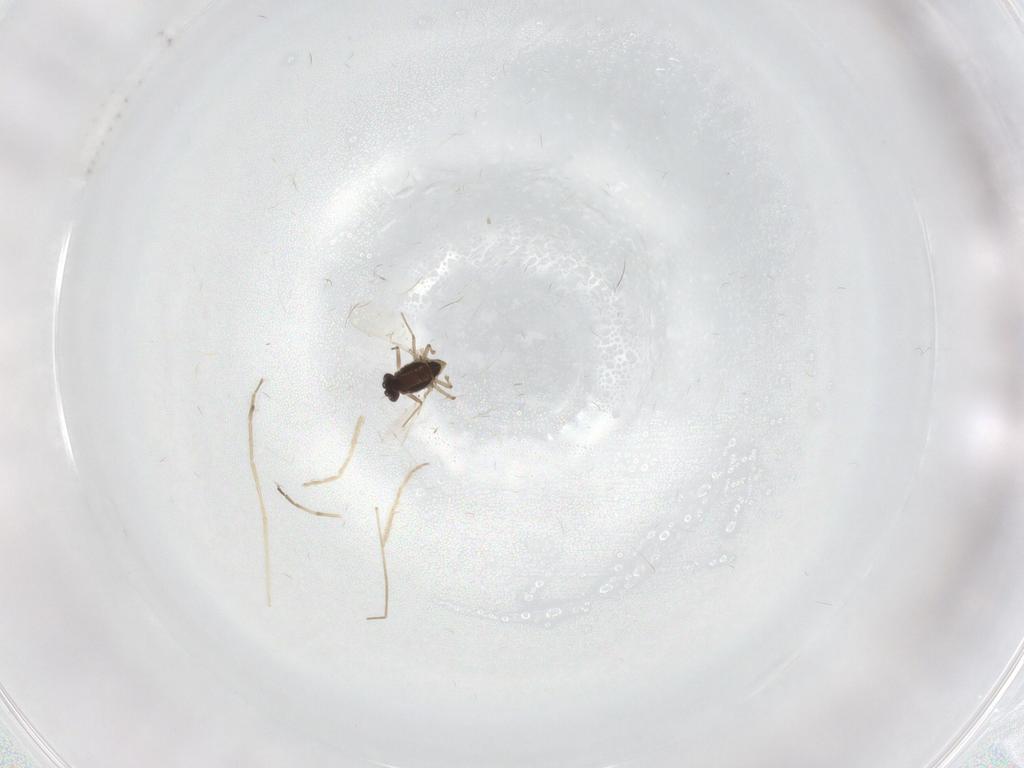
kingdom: Animalia
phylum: Arthropoda
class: Insecta
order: Diptera
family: Chironomidae
